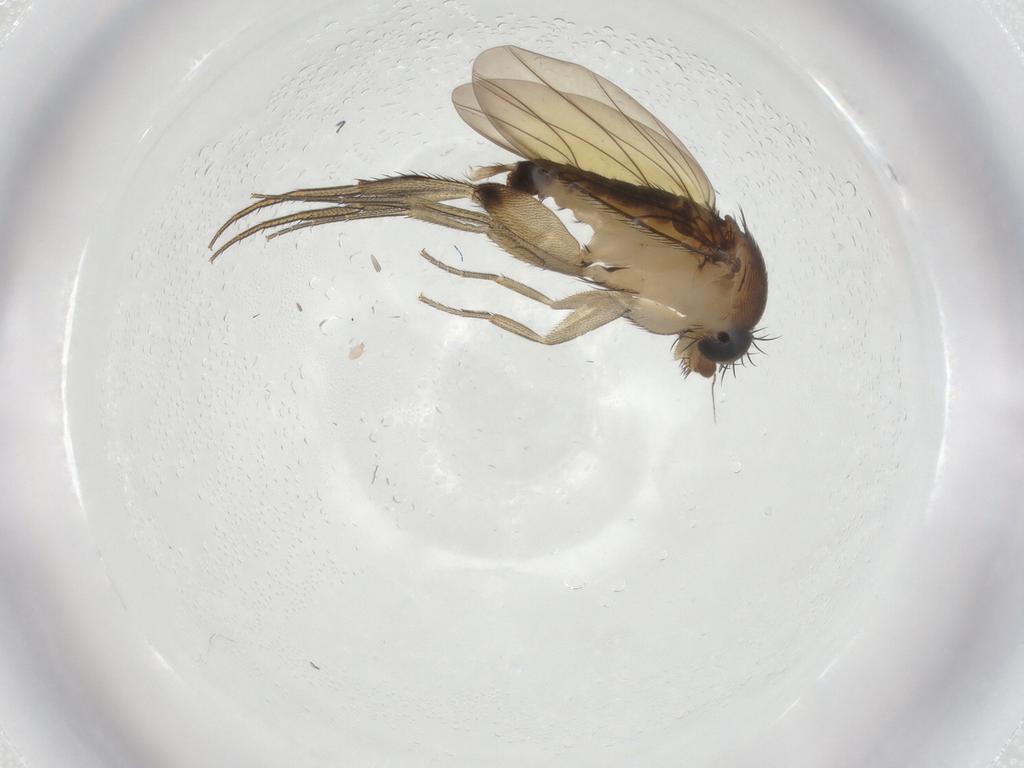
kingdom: Animalia
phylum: Arthropoda
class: Insecta
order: Diptera
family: Phoridae
